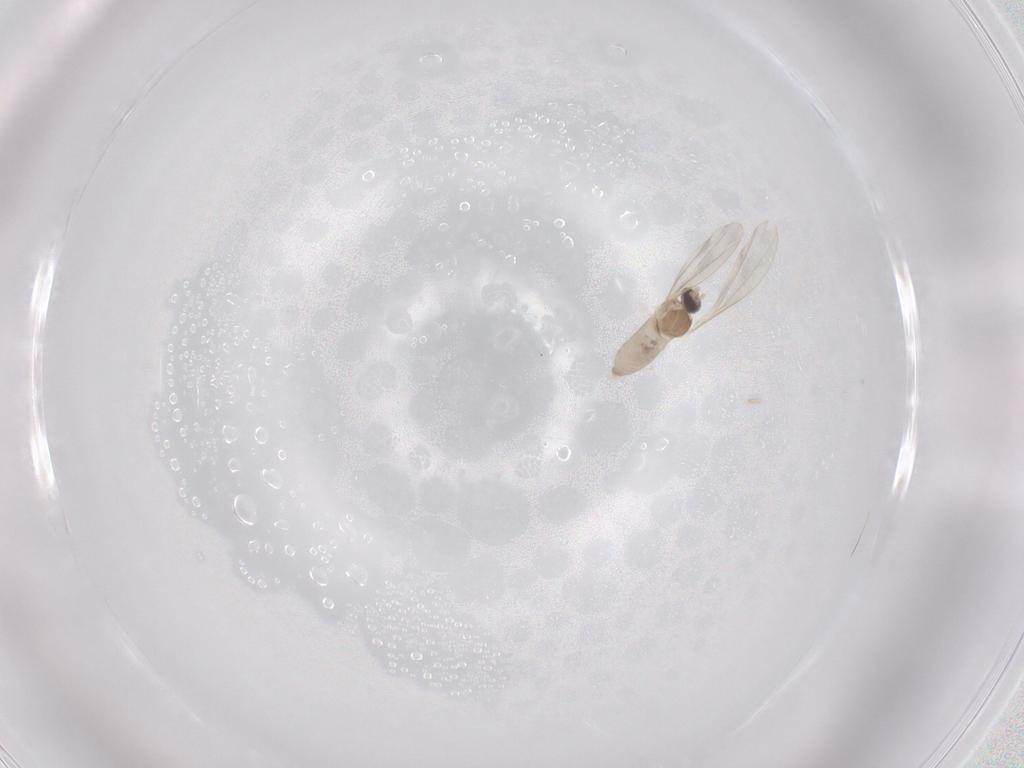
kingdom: Animalia
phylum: Arthropoda
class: Insecta
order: Diptera
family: Cecidomyiidae
